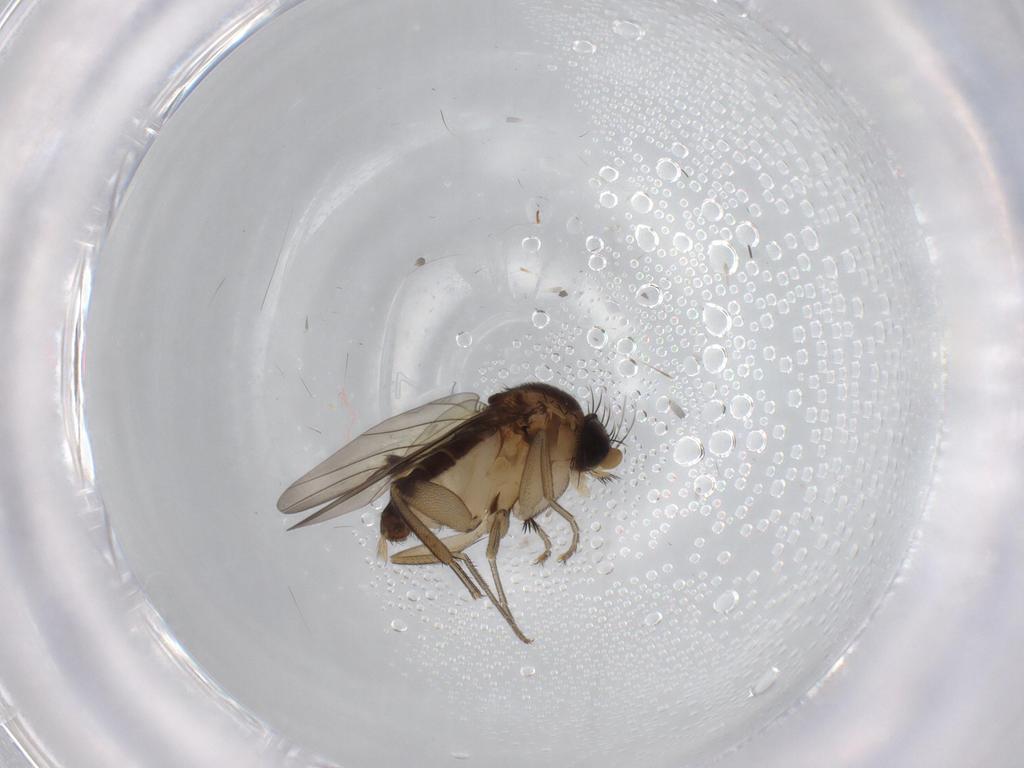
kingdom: Animalia
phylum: Arthropoda
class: Insecta
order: Diptera
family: Phoridae
